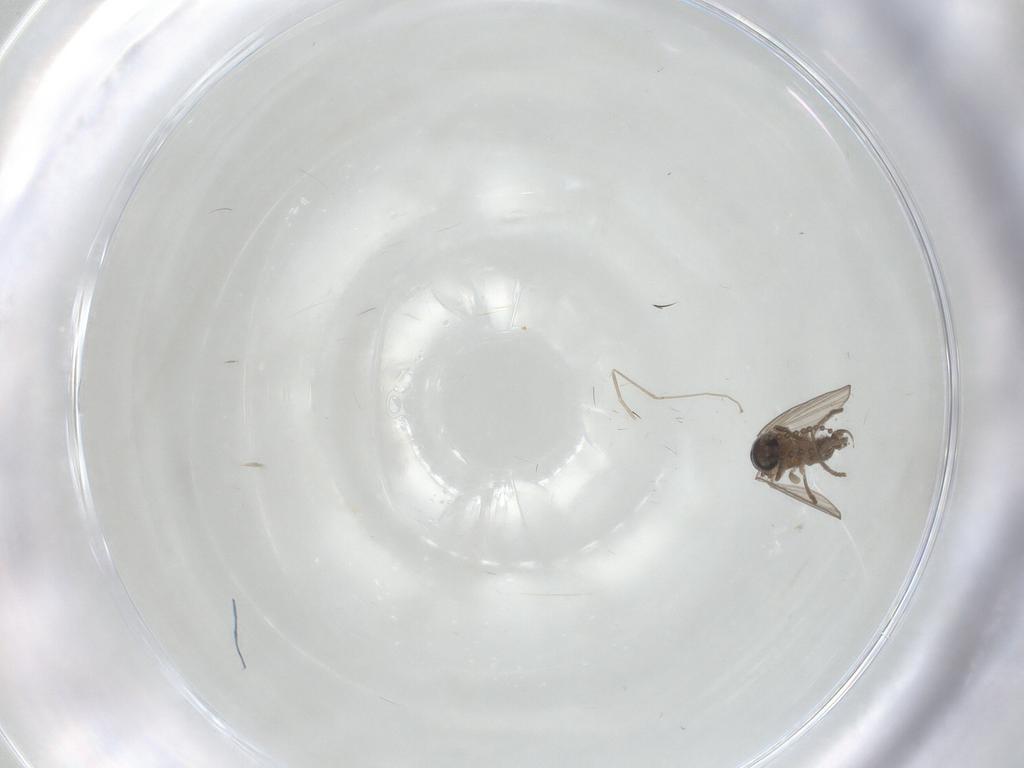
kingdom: Animalia
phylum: Arthropoda
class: Insecta
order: Diptera
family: Psychodidae
